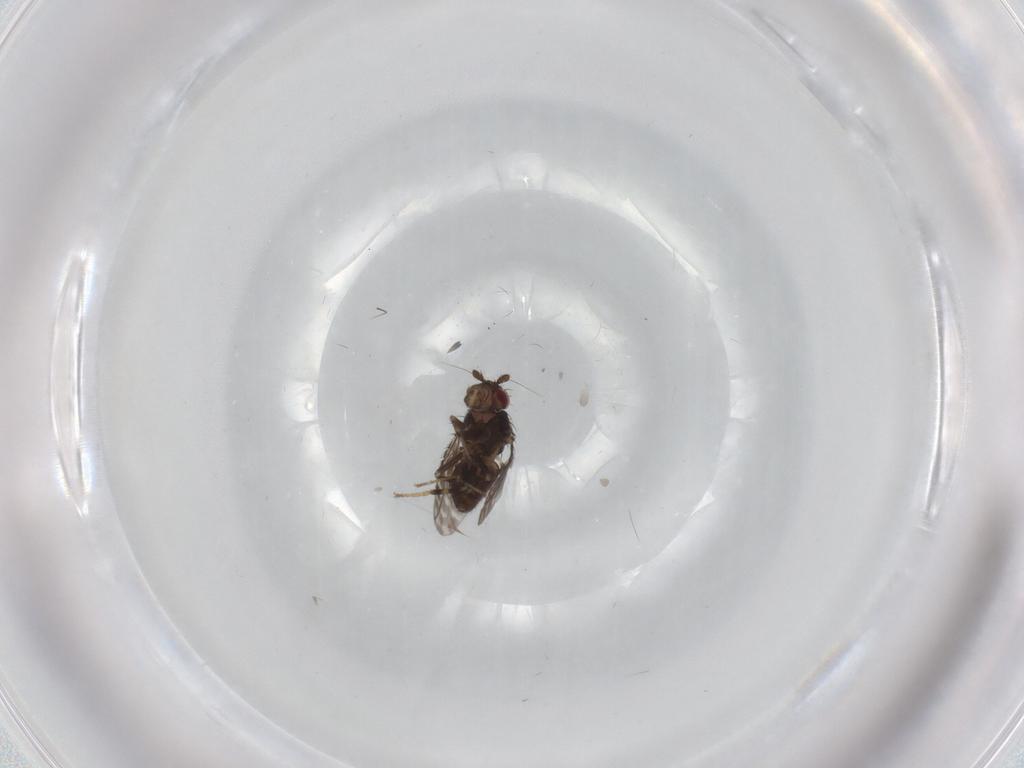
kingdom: Animalia
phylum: Arthropoda
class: Insecta
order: Diptera
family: Sphaeroceridae
